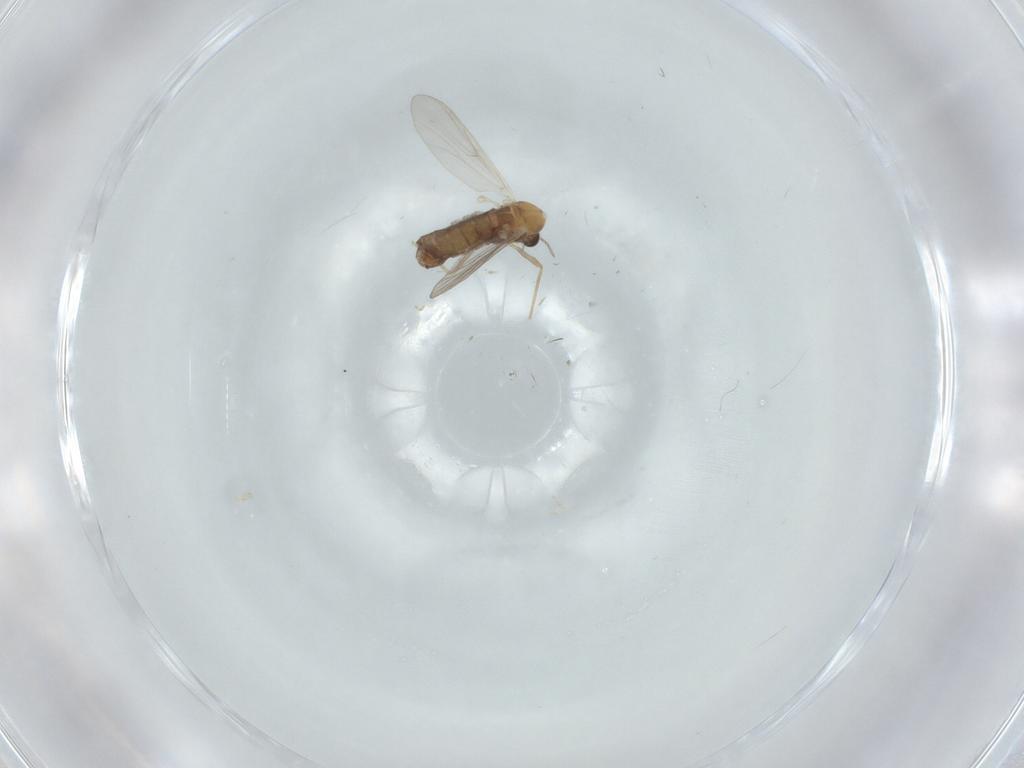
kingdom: Animalia
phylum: Arthropoda
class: Insecta
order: Diptera
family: Chironomidae
